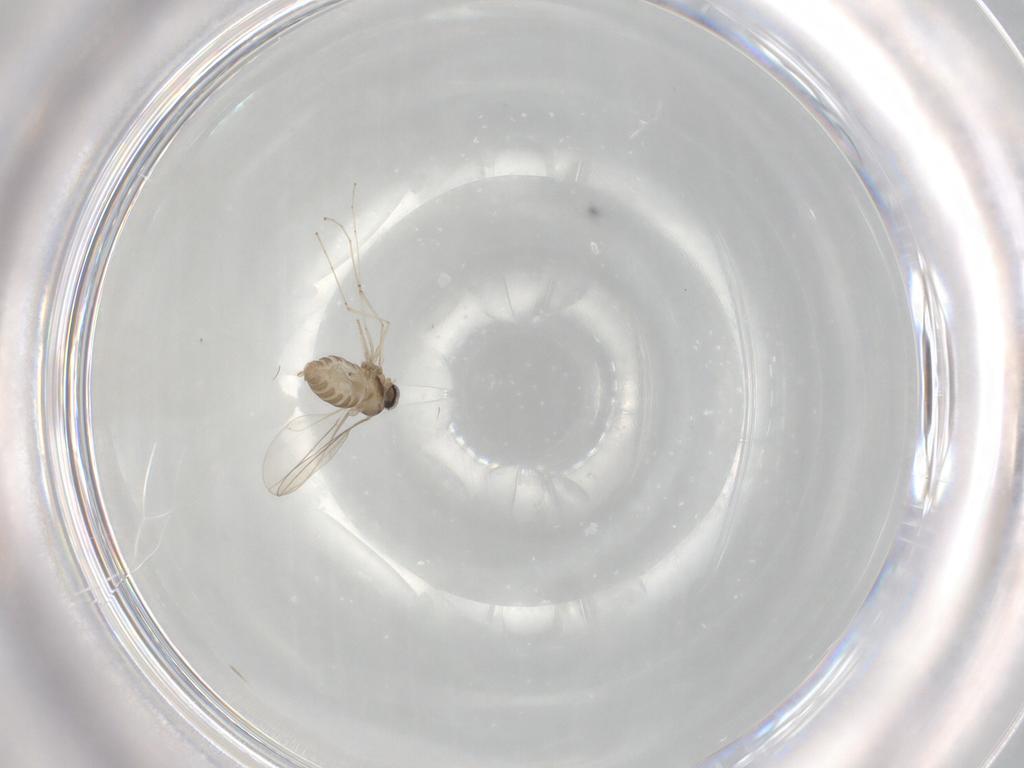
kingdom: Animalia
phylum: Arthropoda
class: Insecta
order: Diptera
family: Cecidomyiidae
